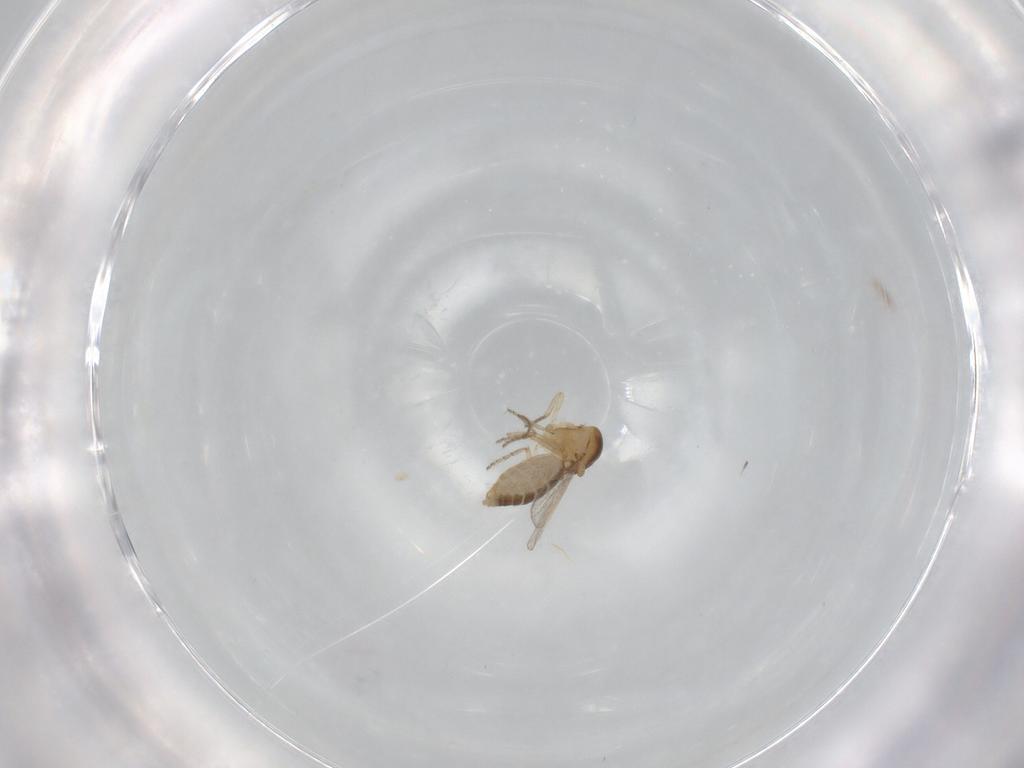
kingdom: Animalia
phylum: Arthropoda
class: Insecta
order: Diptera
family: Ceratopogonidae
